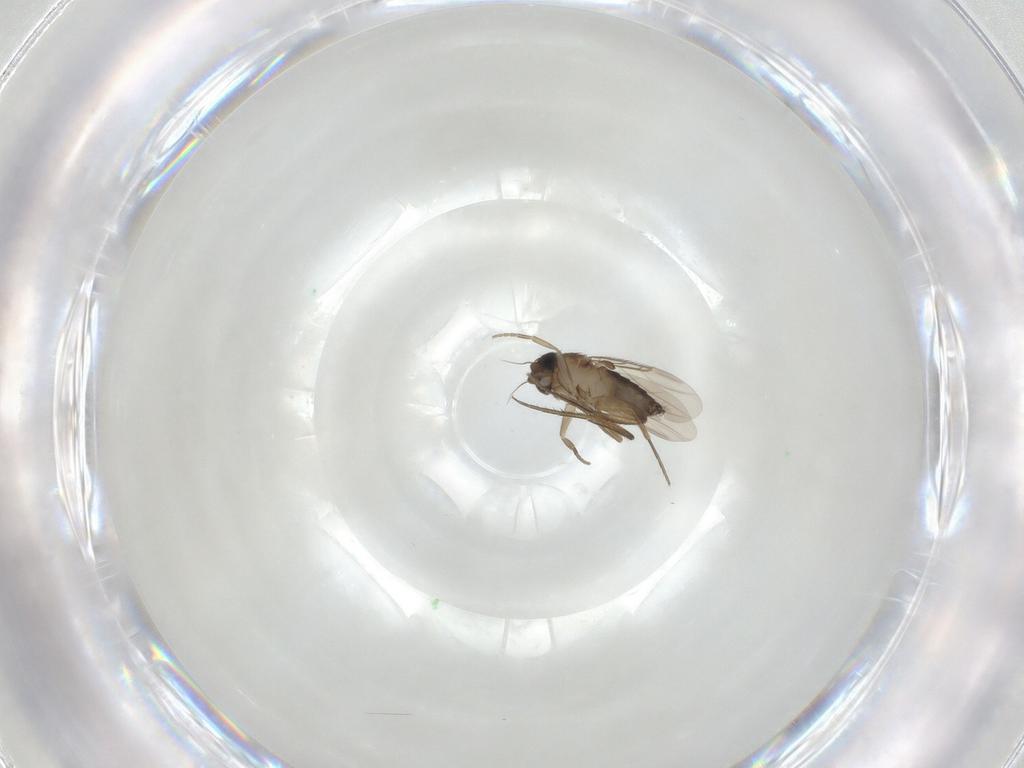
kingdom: Animalia
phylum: Arthropoda
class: Insecta
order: Diptera
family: Phoridae
